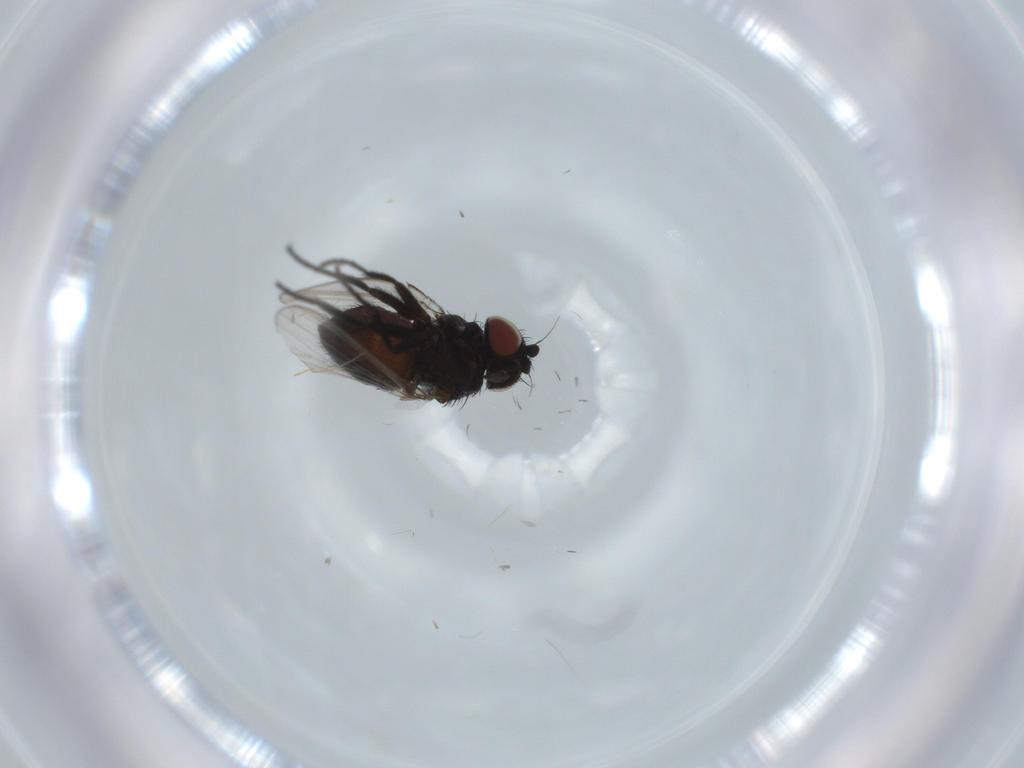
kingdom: Animalia
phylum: Arthropoda
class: Insecta
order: Diptera
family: Milichiidae
